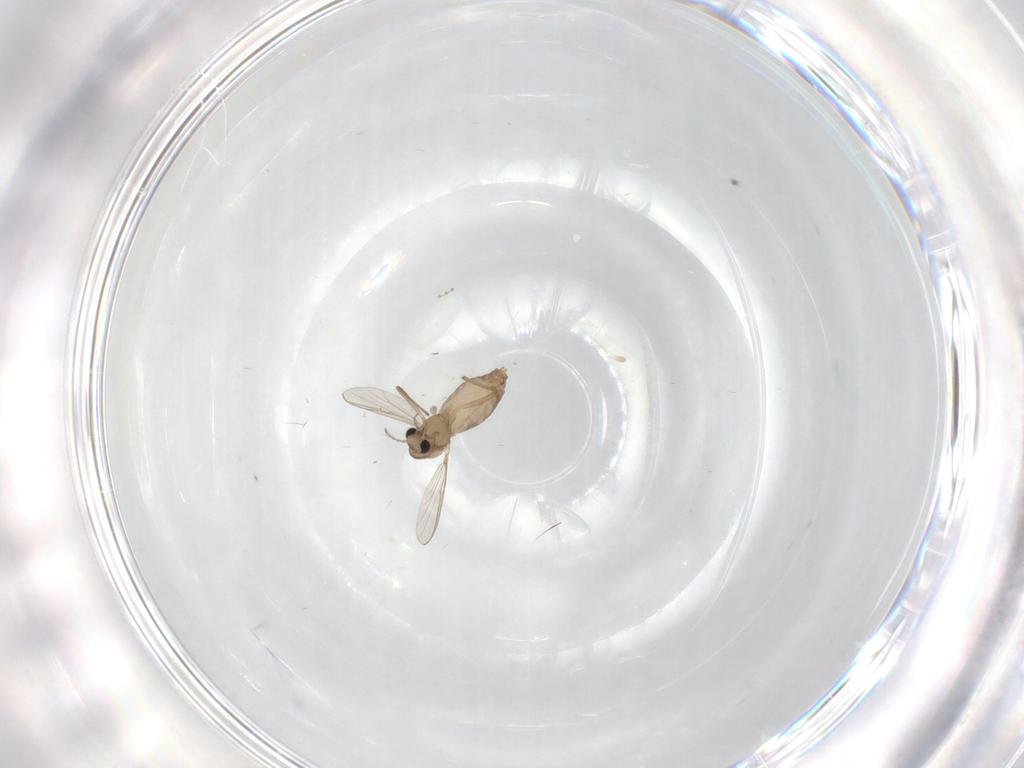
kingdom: Animalia
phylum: Arthropoda
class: Insecta
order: Diptera
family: Chironomidae
